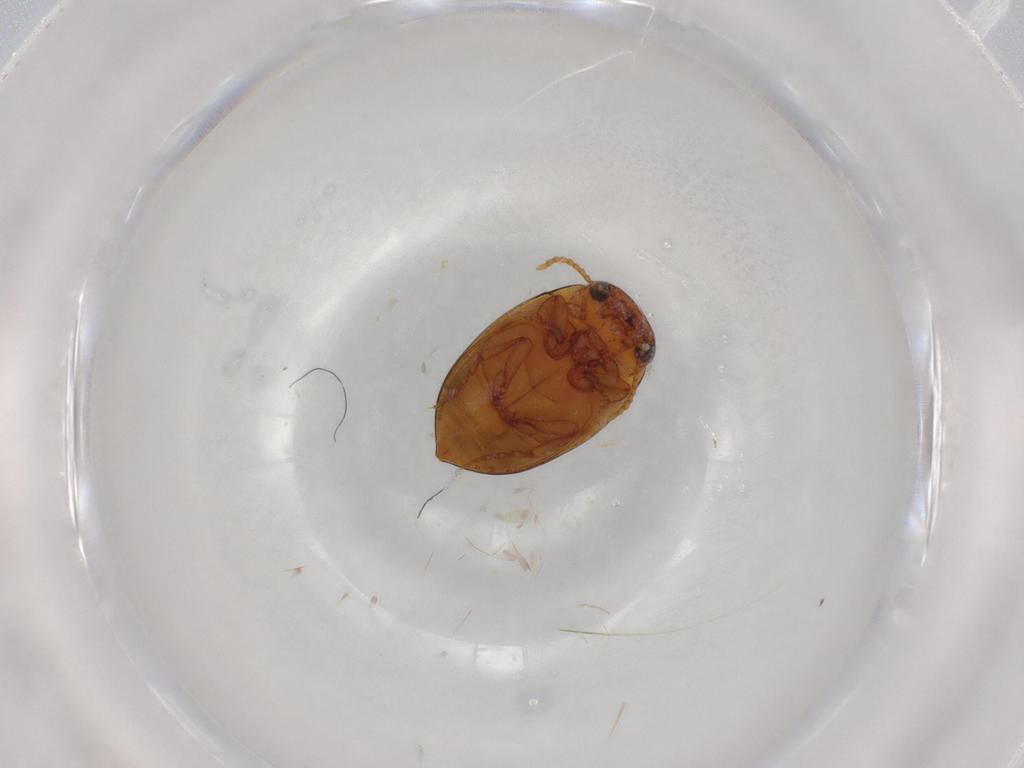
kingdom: Animalia
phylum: Arthropoda
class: Insecta
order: Coleoptera
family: Dytiscidae
